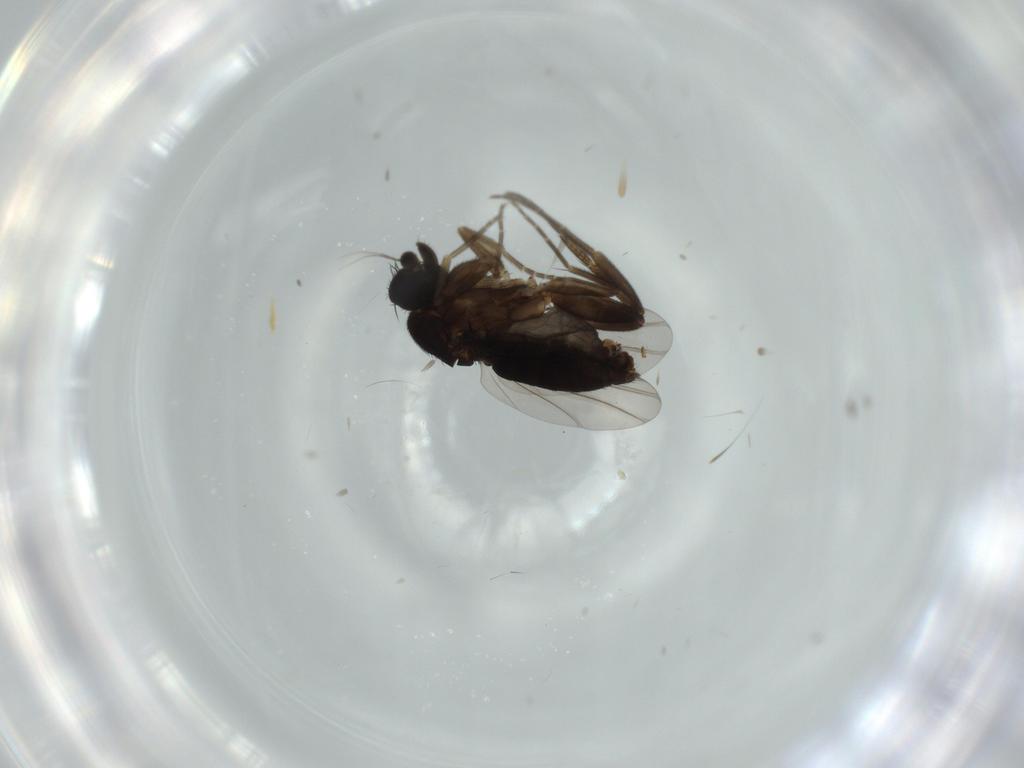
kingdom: Animalia
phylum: Arthropoda
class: Insecta
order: Diptera
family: Phoridae
